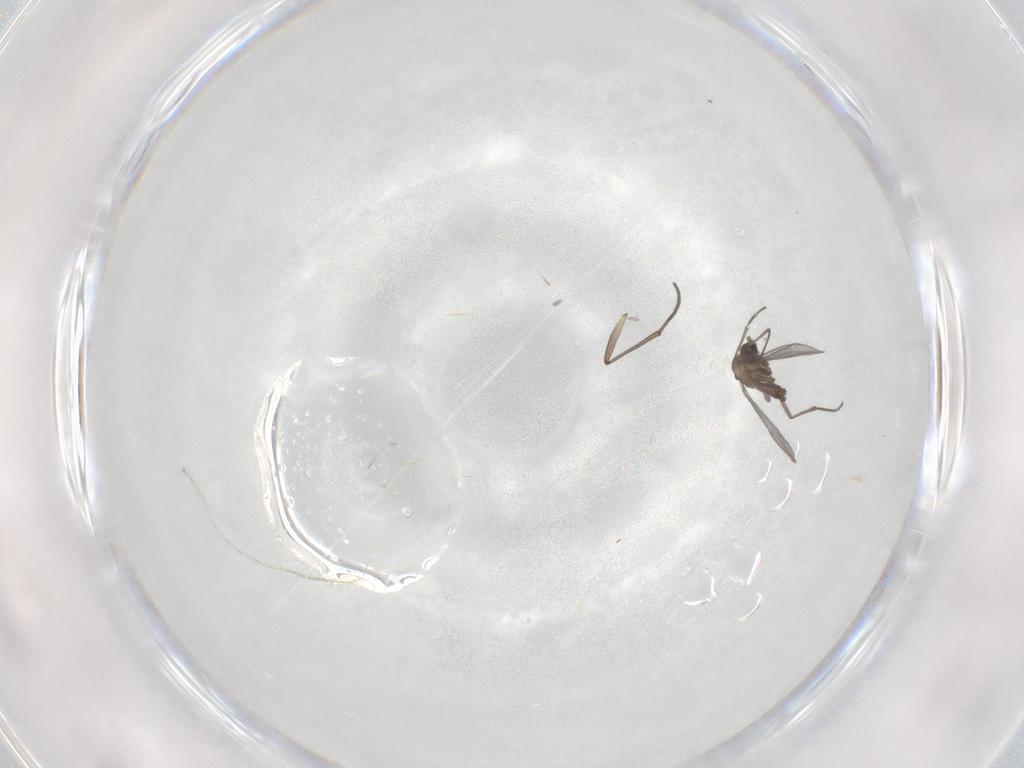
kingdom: Animalia
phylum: Arthropoda
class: Insecta
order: Diptera
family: Sciaridae
